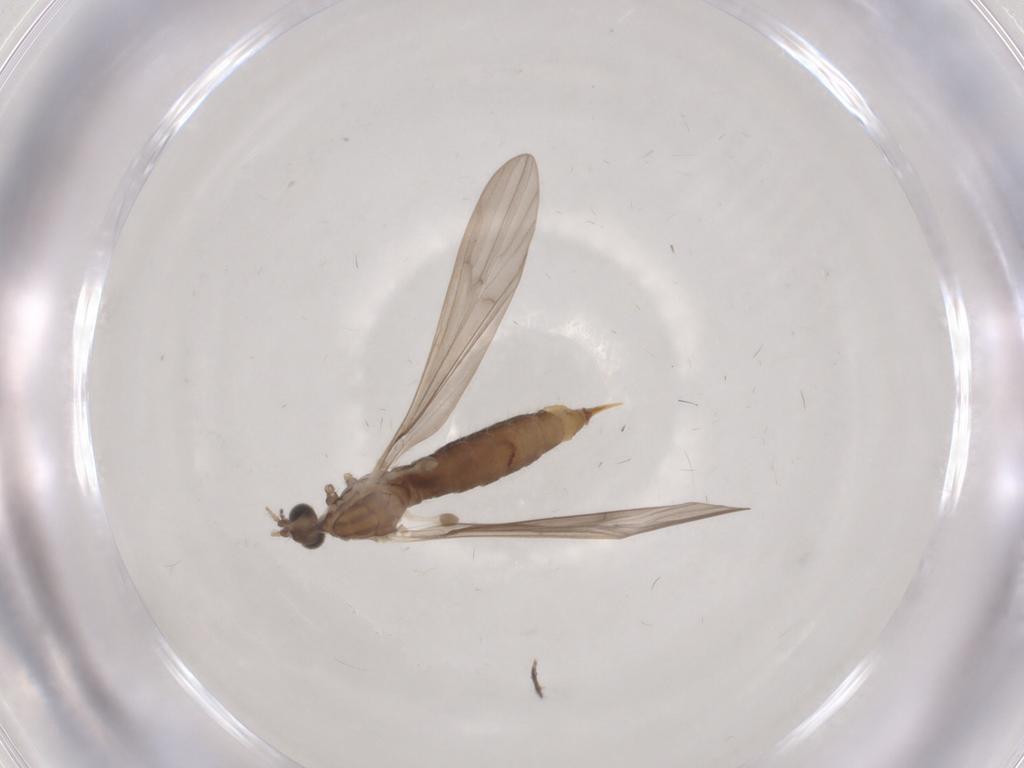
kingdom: Animalia
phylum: Arthropoda
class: Insecta
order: Diptera
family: Limoniidae
